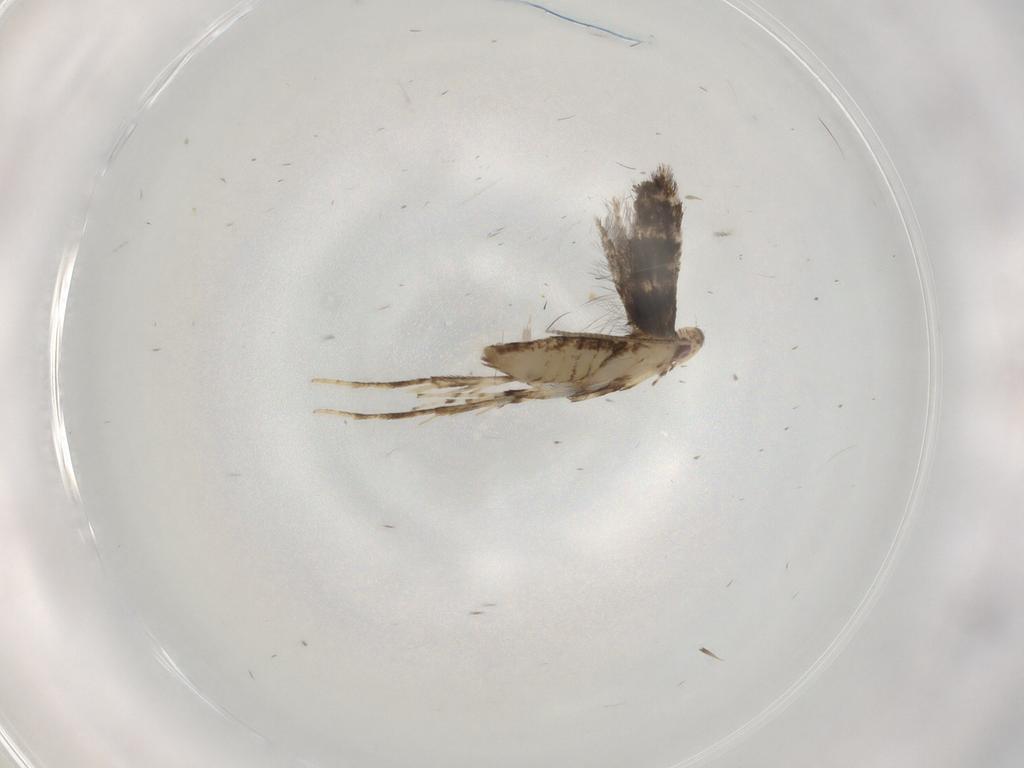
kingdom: Animalia
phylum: Arthropoda
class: Insecta
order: Lepidoptera
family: Gracillariidae
